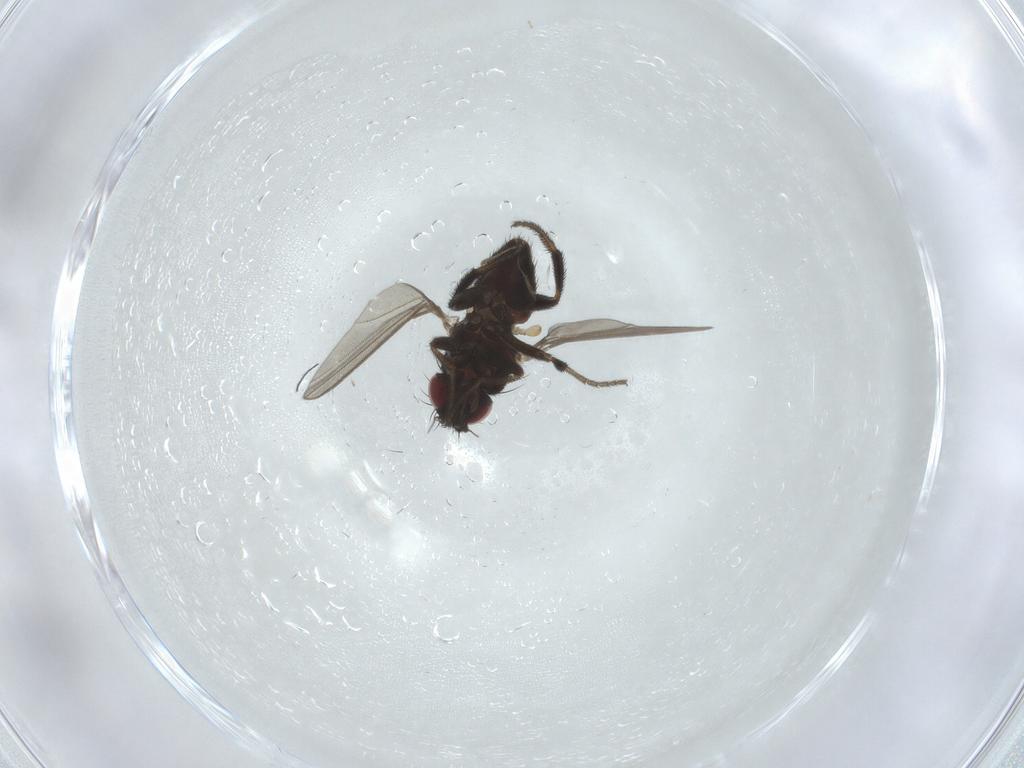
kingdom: Animalia
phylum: Arthropoda
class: Insecta
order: Diptera
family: Milichiidae
